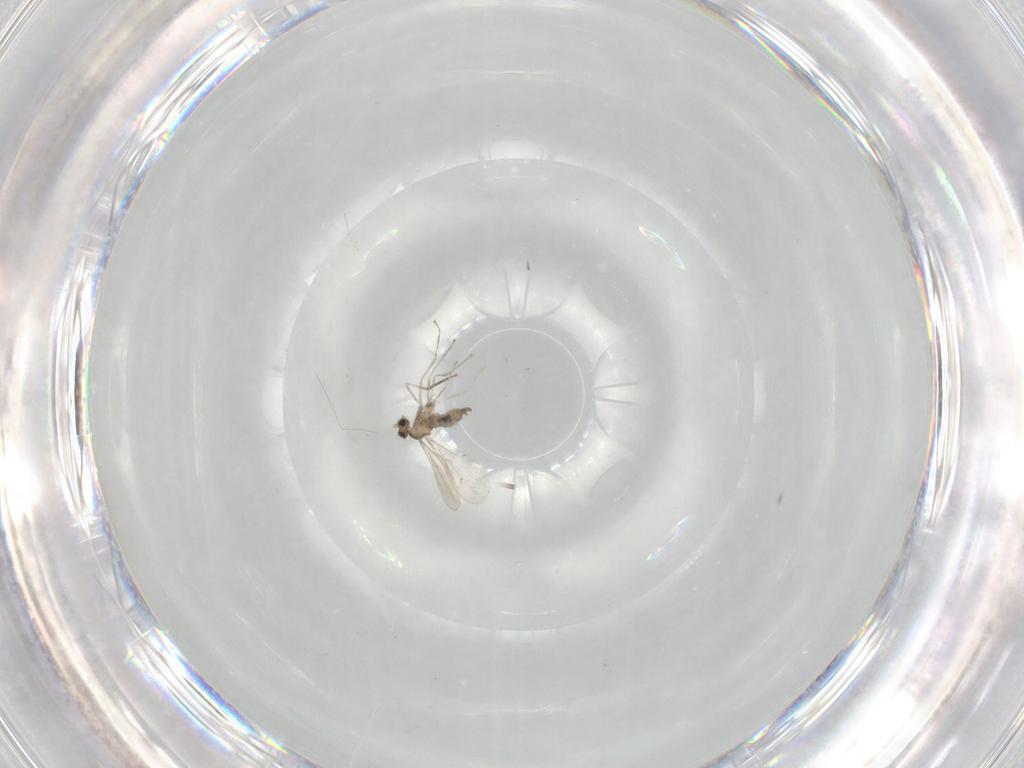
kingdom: Animalia
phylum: Arthropoda
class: Insecta
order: Diptera
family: Cecidomyiidae
